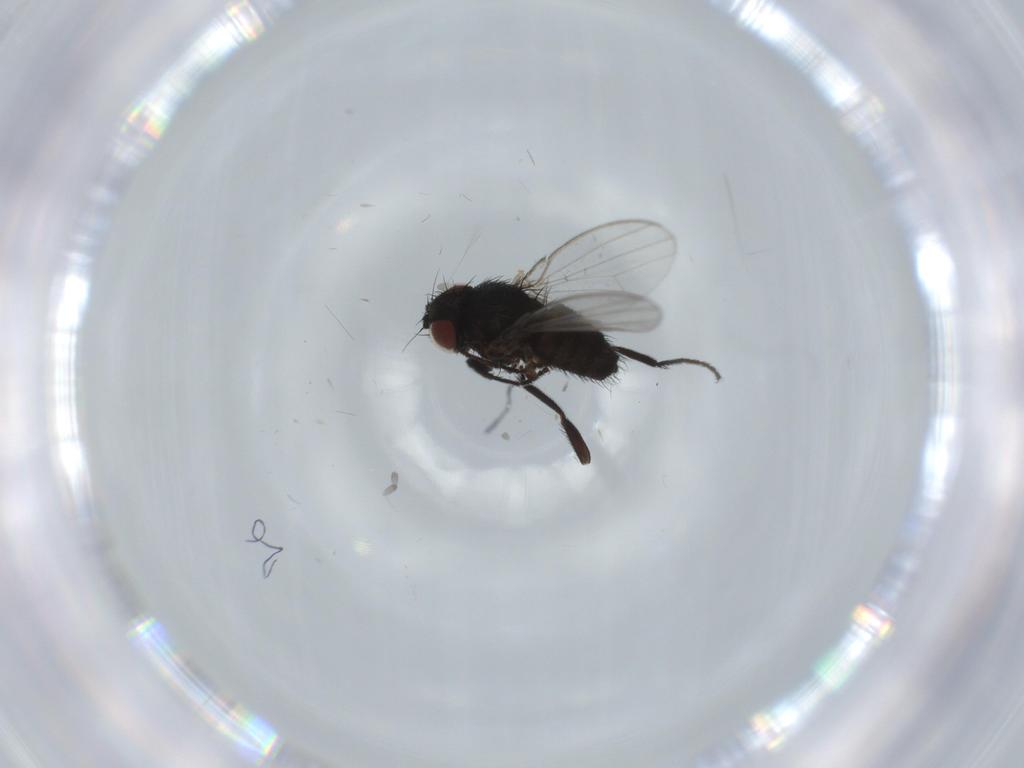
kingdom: Animalia
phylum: Arthropoda
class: Insecta
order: Diptera
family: Milichiidae
